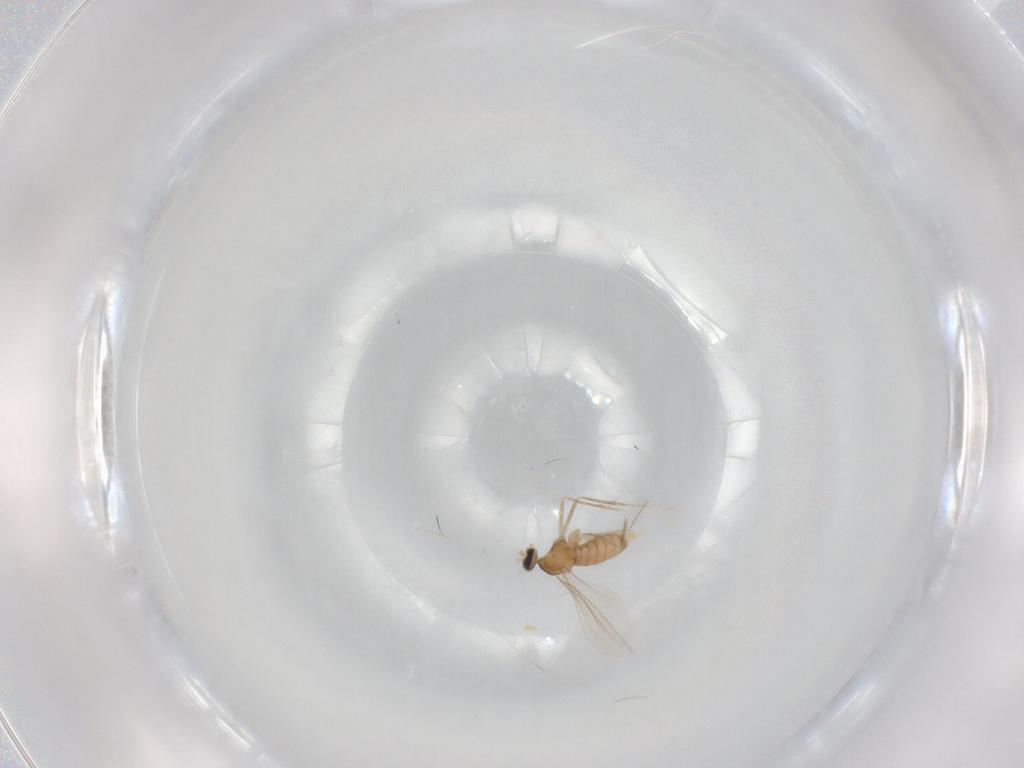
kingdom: Animalia
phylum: Arthropoda
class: Insecta
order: Diptera
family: Cecidomyiidae
